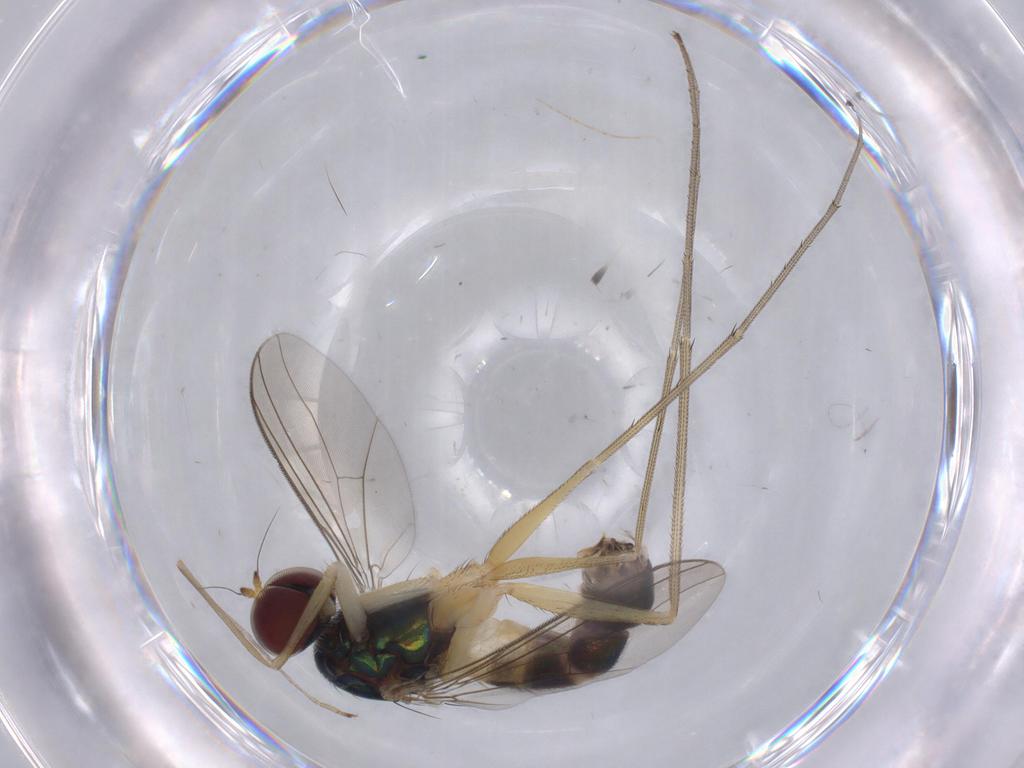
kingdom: Animalia
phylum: Arthropoda
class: Insecta
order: Diptera
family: Dolichopodidae
